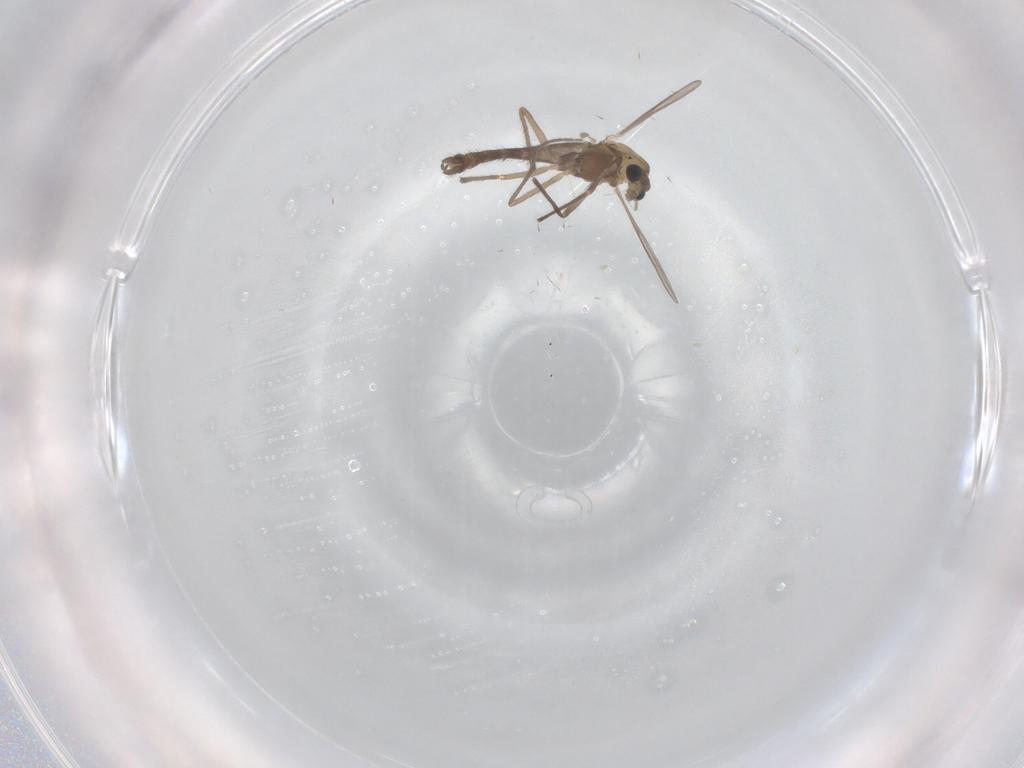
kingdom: Animalia
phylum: Arthropoda
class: Insecta
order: Diptera
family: Chironomidae
